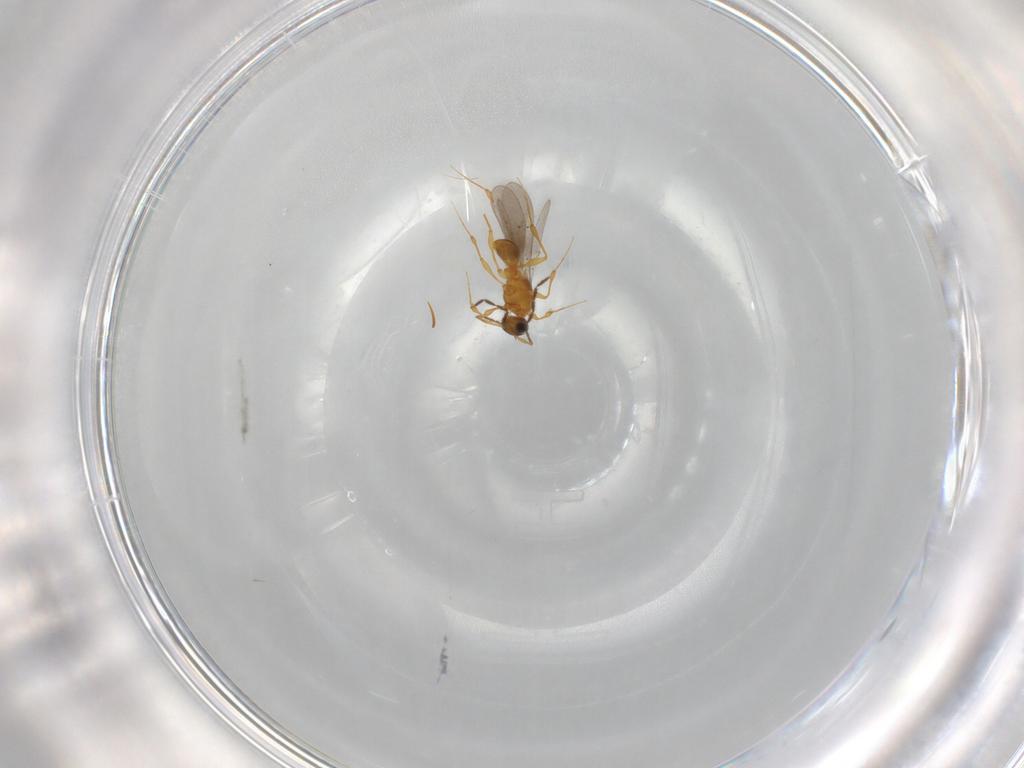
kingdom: Animalia
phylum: Arthropoda
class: Insecta
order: Hymenoptera
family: Platygastridae
